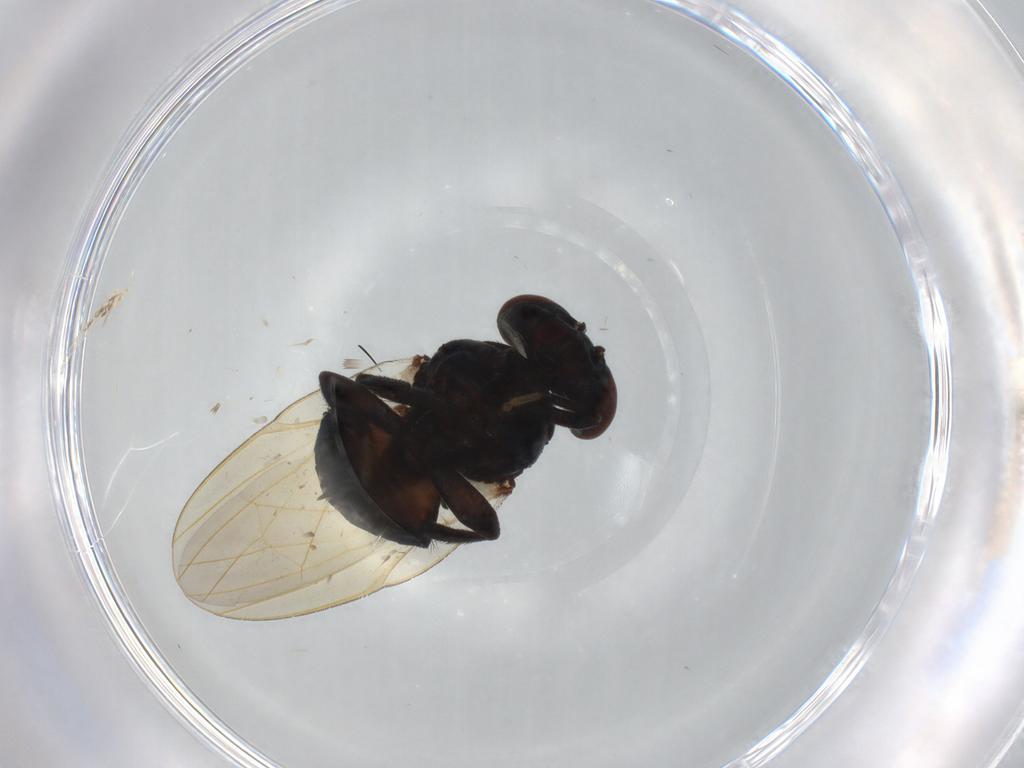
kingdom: Animalia
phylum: Arthropoda
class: Insecta
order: Diptera
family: Lonchaeidae
